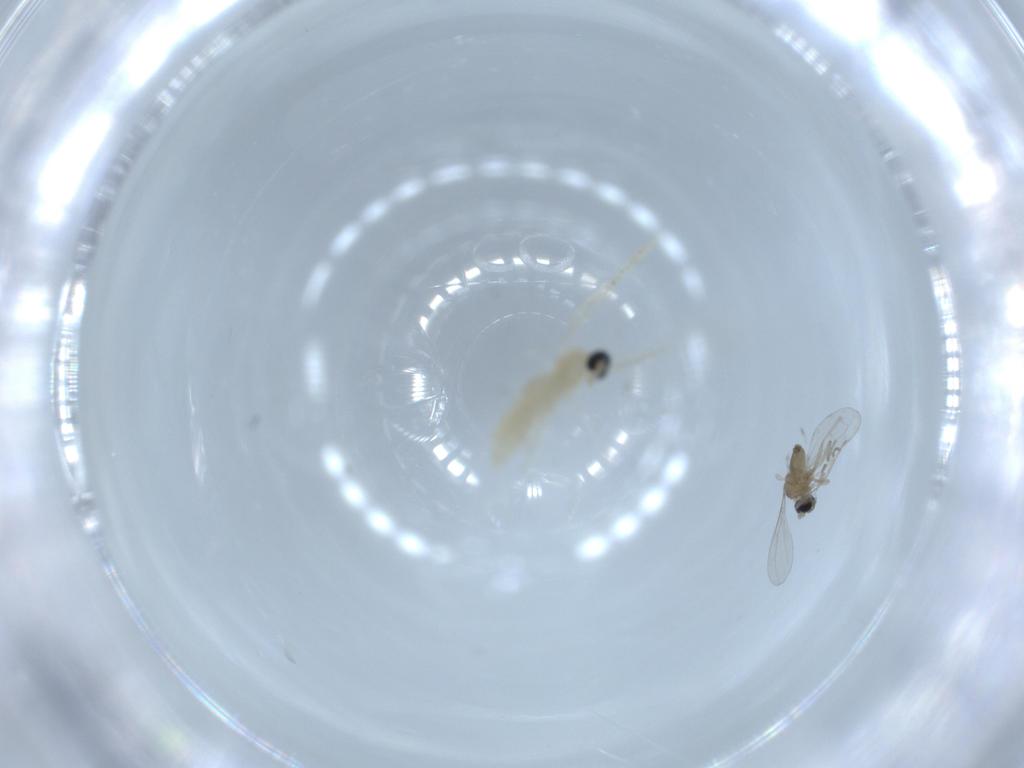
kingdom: Animalia
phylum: Arthropoda
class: Insecta
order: Diptera
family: Cecidomyiidae
